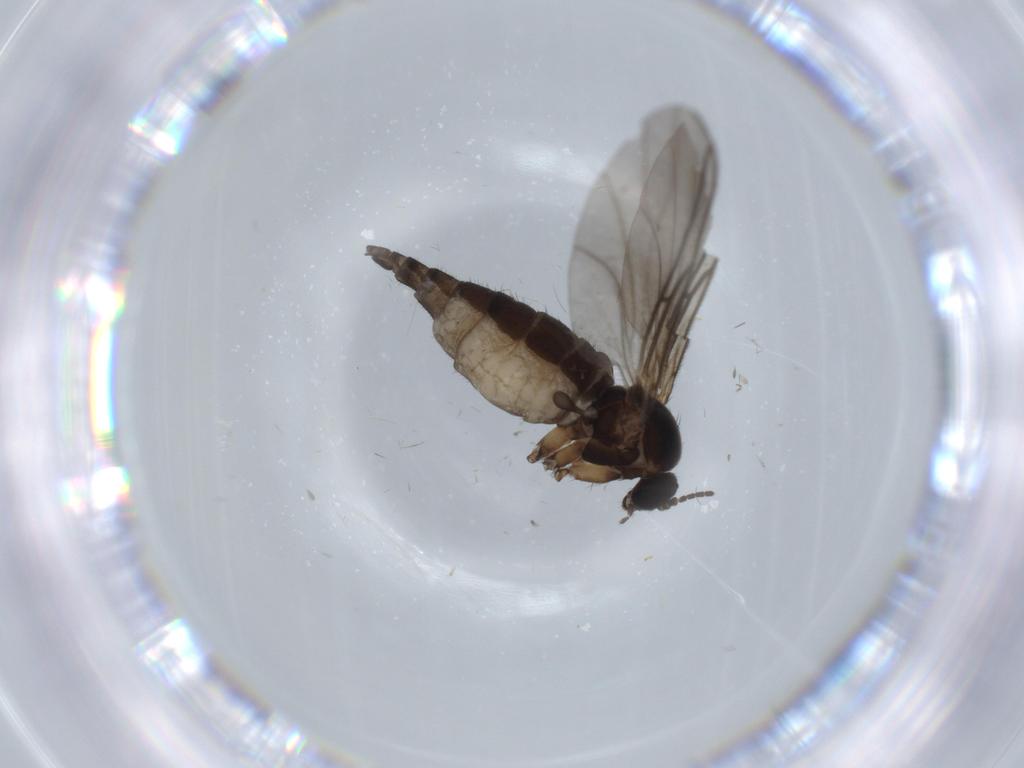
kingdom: Animalia
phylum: Arthropoda
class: Insecta
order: Diptera
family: Sciaridae
